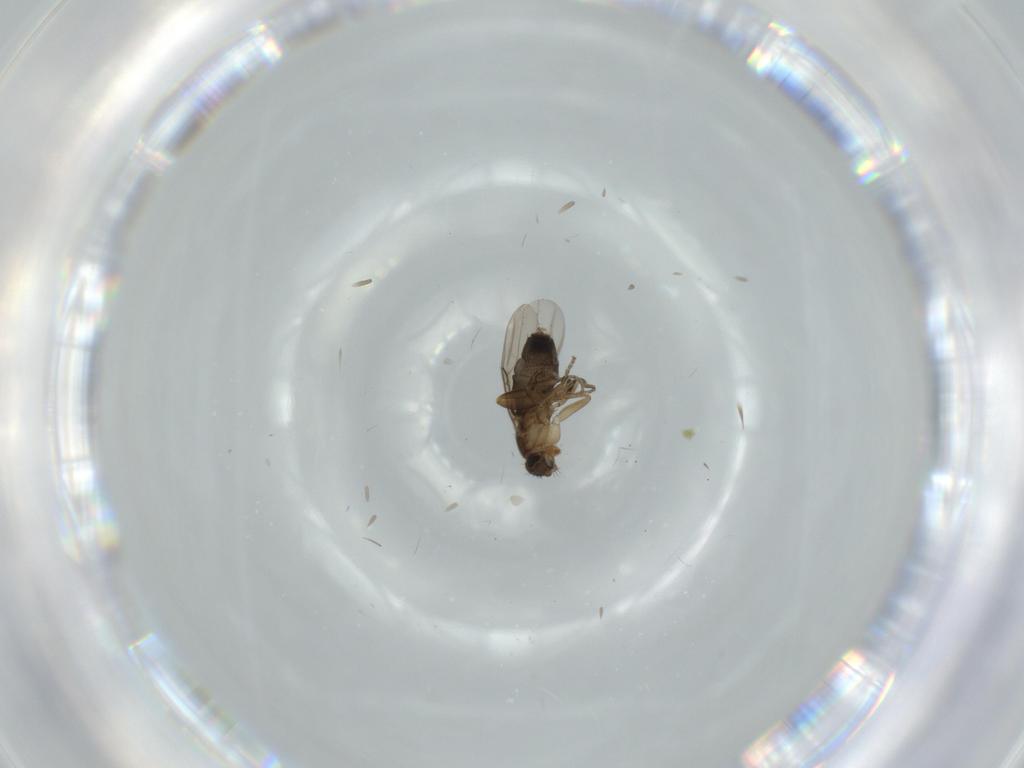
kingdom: Animalia
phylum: Arthropoda
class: Insecta
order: Diptera
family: Phoridae
